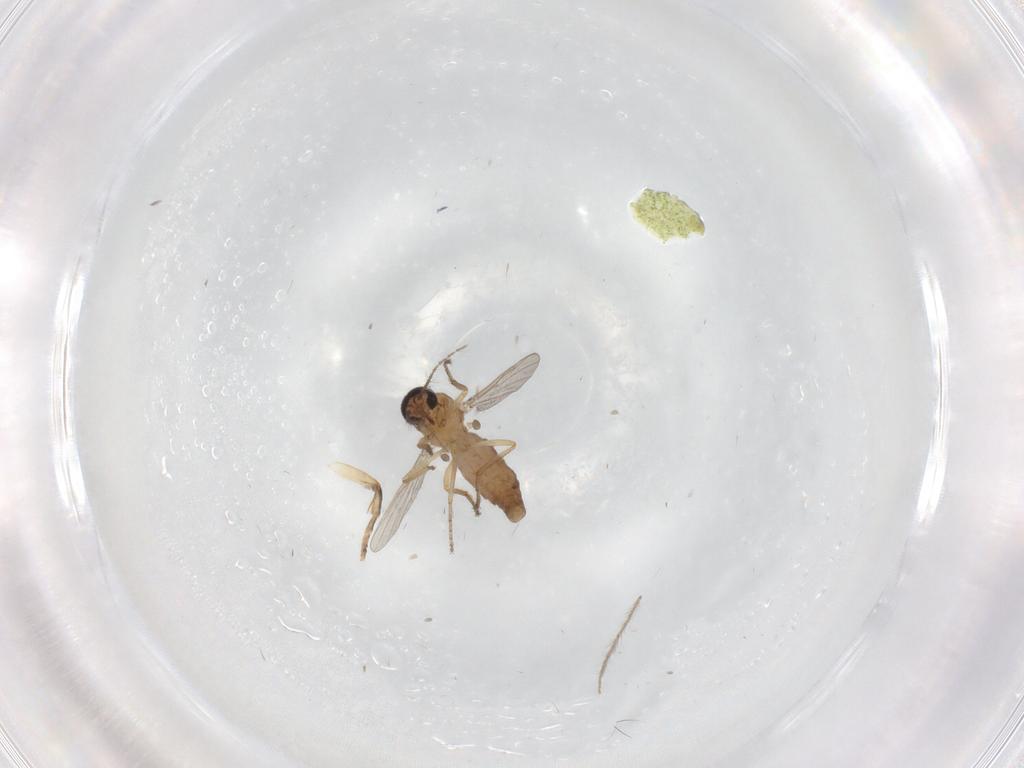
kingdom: Animalia
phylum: Arthropoda
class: Insecta
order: Diptera
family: Ceratopogonidae
